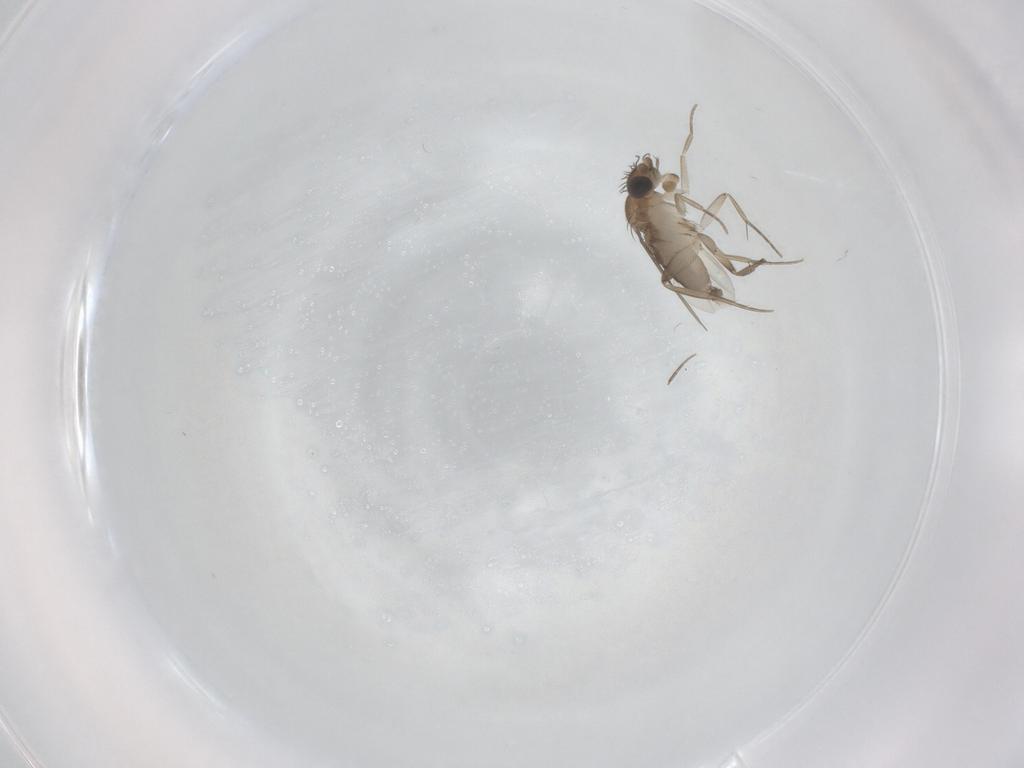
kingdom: Animalia
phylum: Arthropoda
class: Insecta
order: Diptera
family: Phoridae
